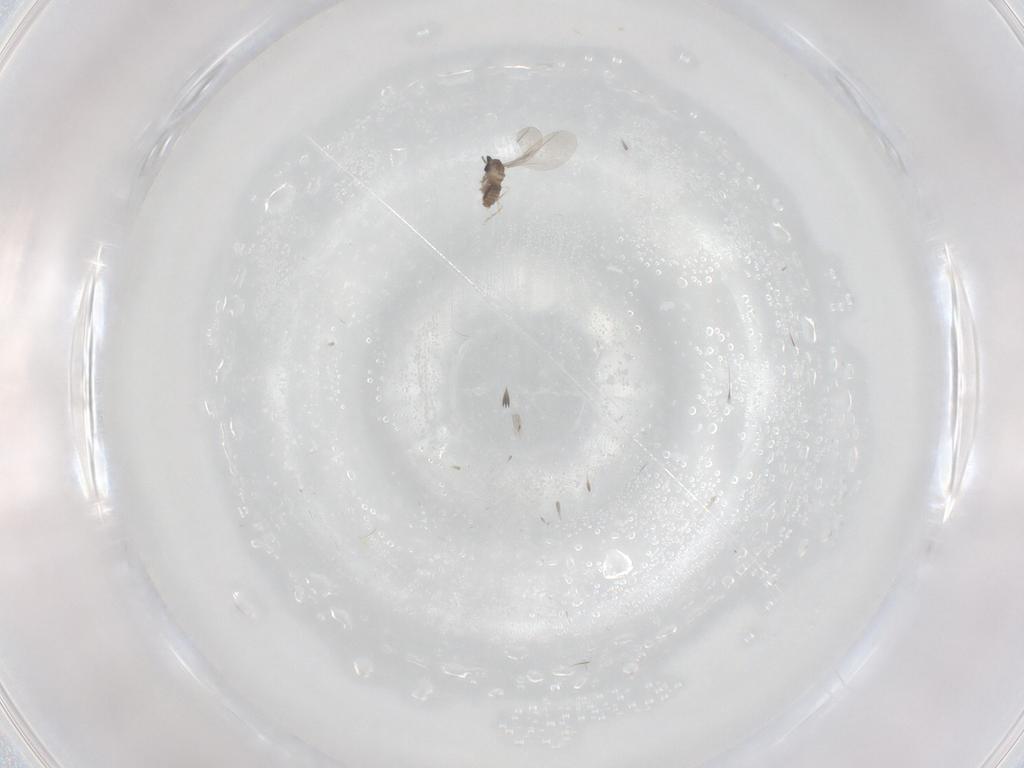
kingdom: Animalia
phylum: Arthropoda
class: Insecta
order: Diptera
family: Cecidomyiidae
